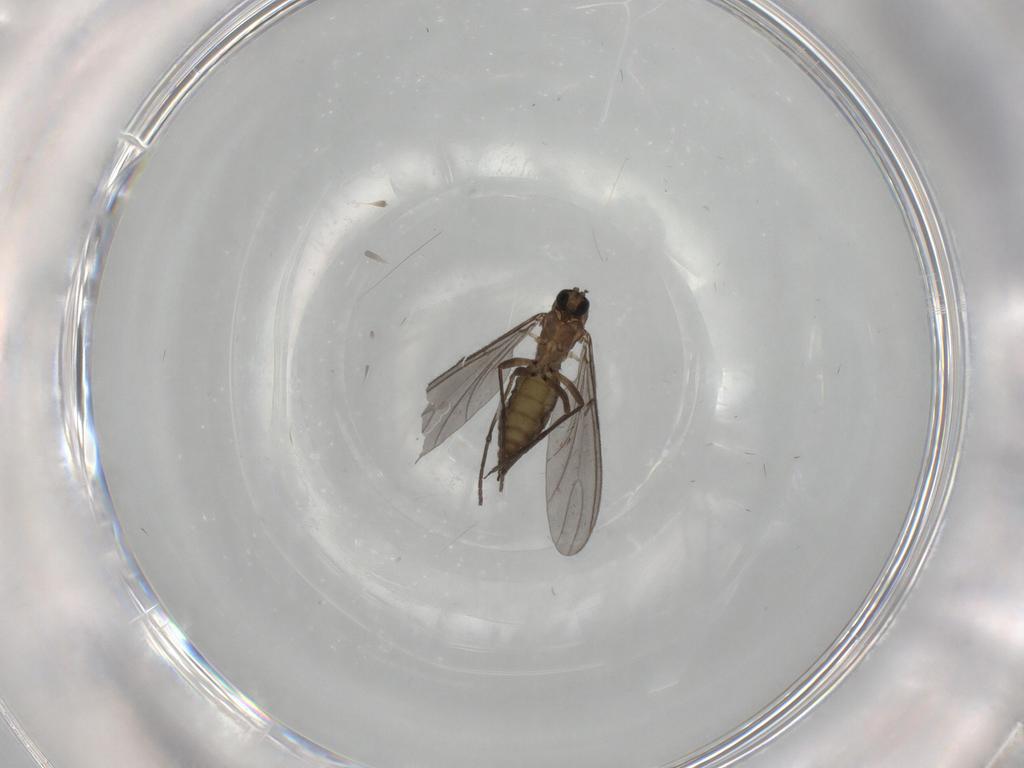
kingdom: Animalia
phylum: Arthropoda
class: Insecta
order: Diptera
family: Sciaridae
